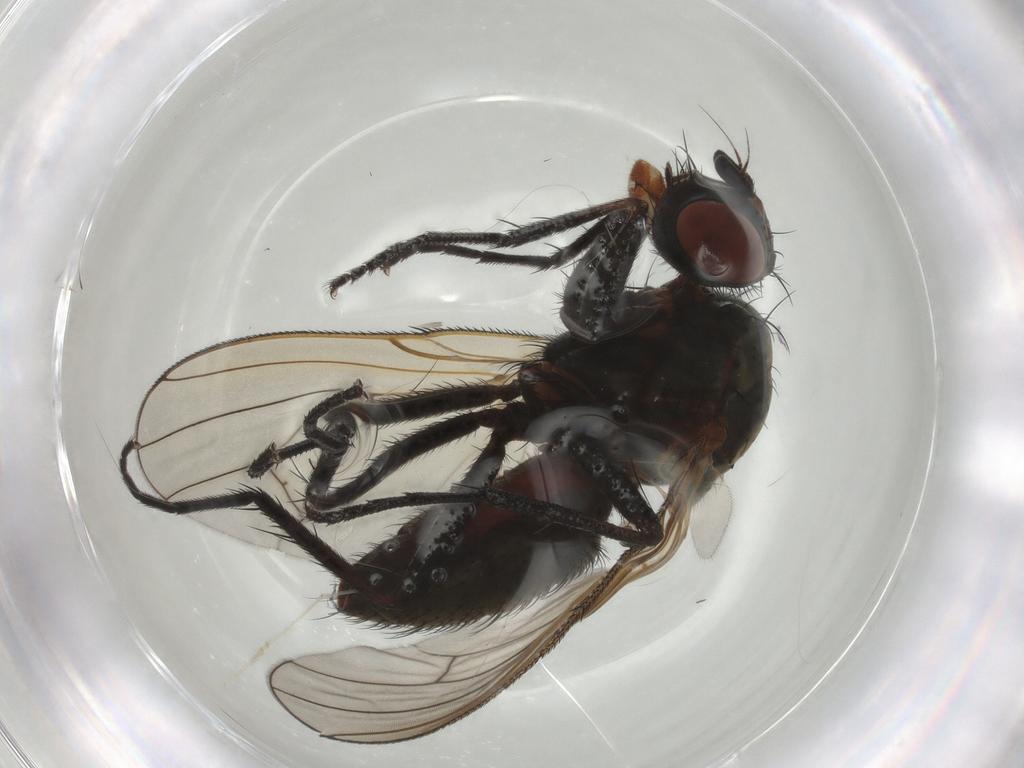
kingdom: Animalia
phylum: Arthropoda
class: Insecta
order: Diptera
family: Anthomyiidae
